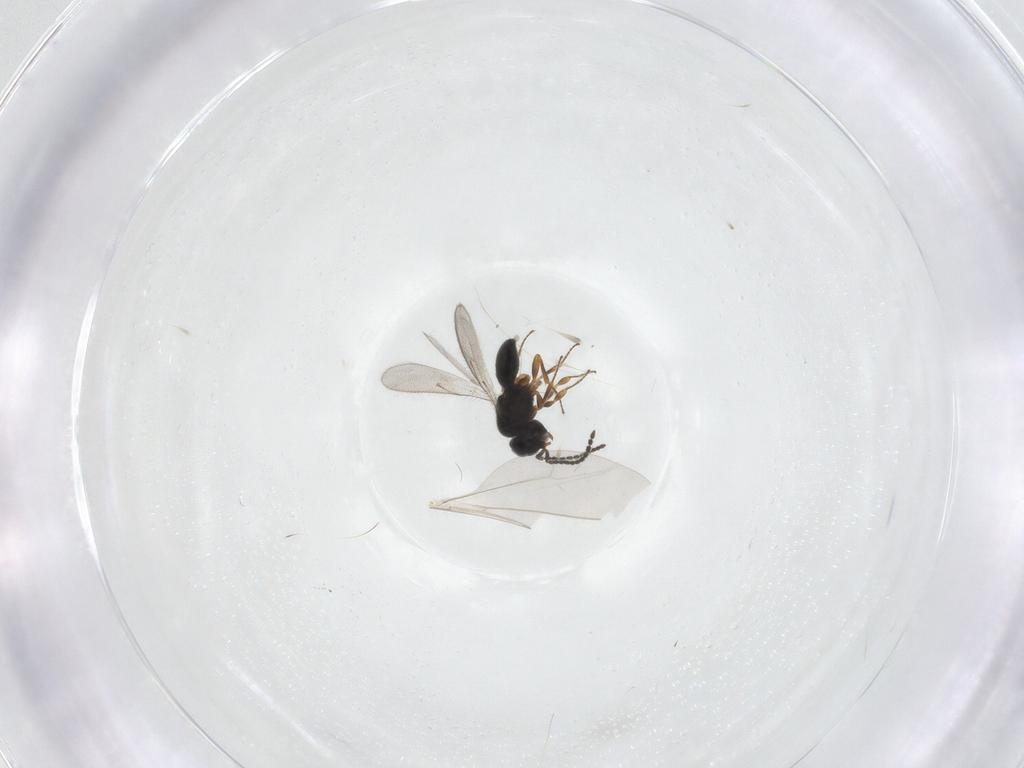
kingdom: Animalia
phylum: Arthropoda
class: Insecta
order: Hymenoptera
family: Scelionidae
